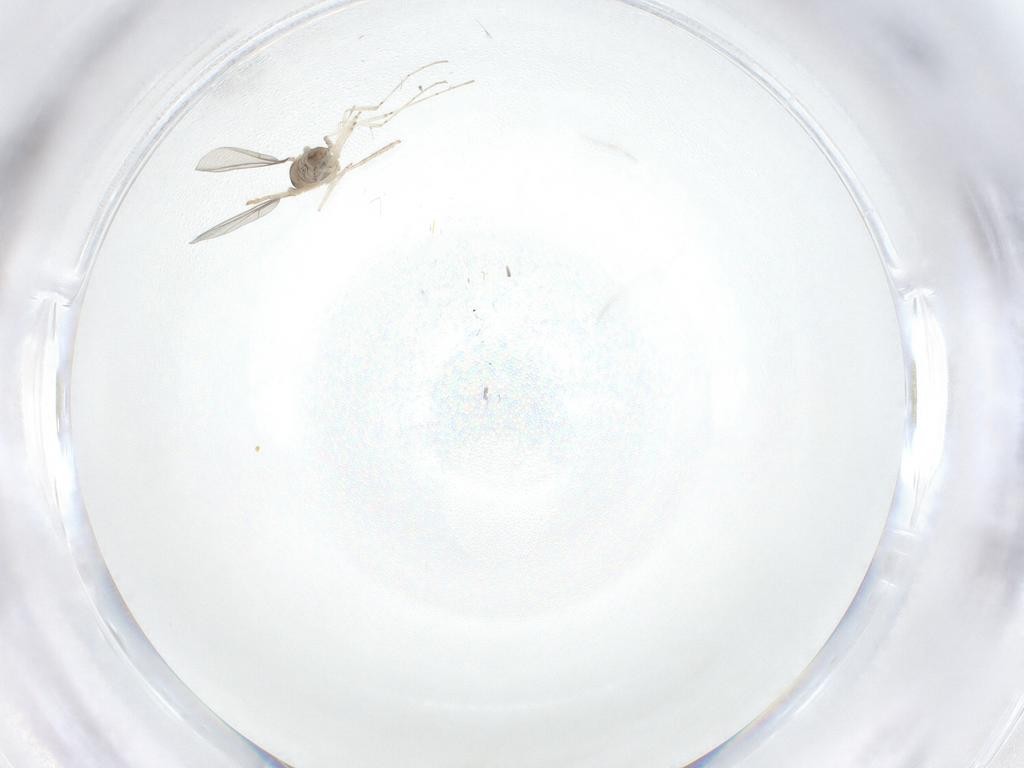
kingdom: Animalia
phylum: Arthropoda
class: Insecta
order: Diptera
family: Cecidomyiidae
